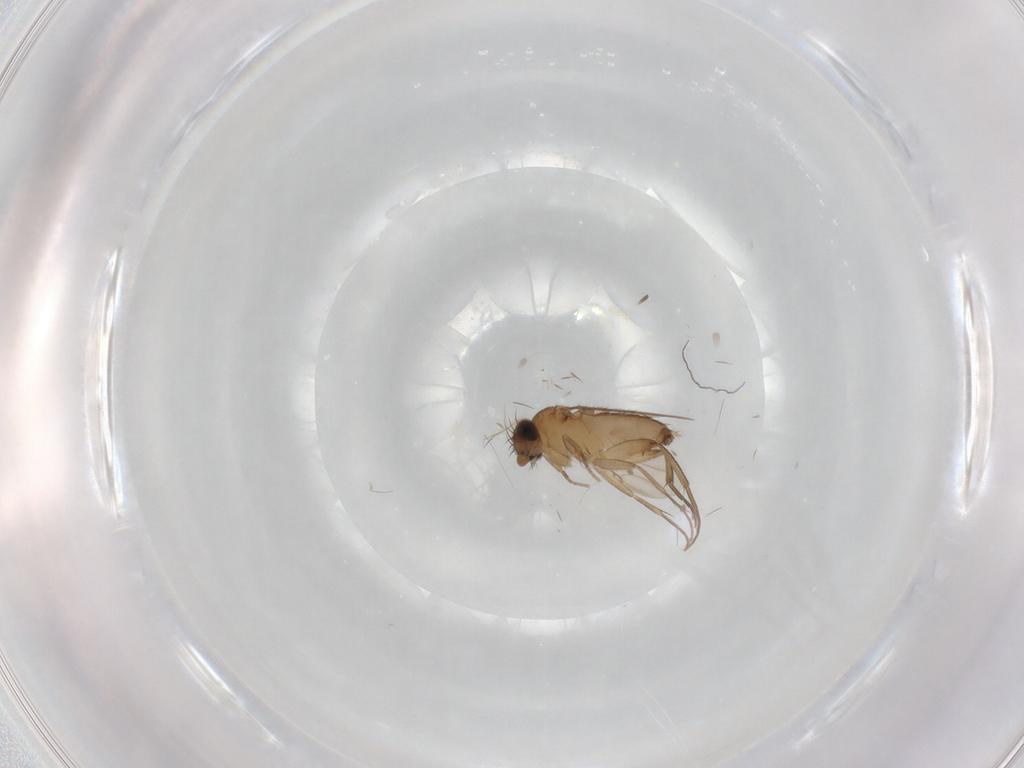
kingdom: Animalia
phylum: Arthropoda
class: Insecta
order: Diptera
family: Phoridae
